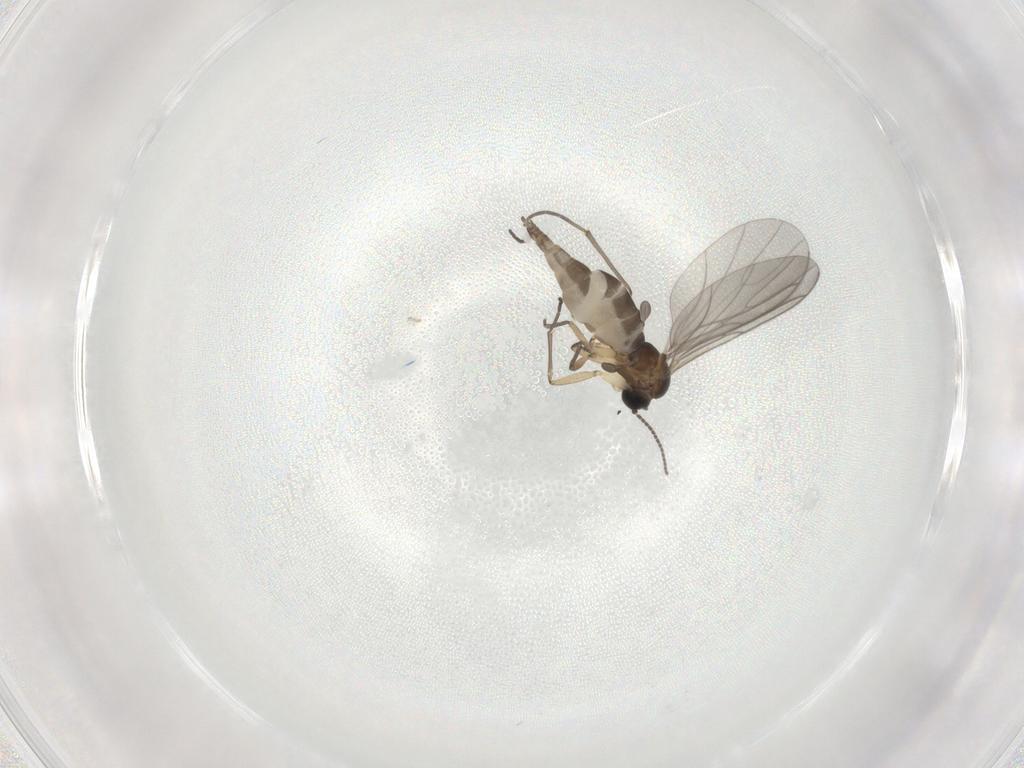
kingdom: Animalia
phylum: Arthropoda
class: Insecta
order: Diptera
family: Sciaridae
